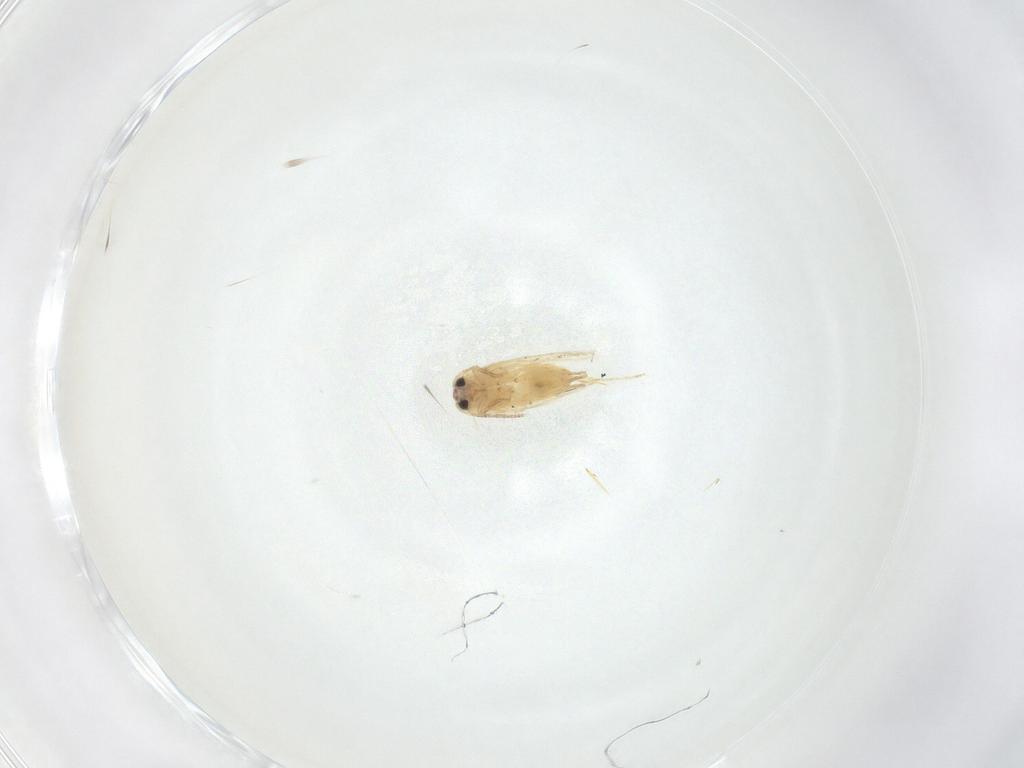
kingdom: Animalia
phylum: Arthropoda
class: Insecta
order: Lepidoptera
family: Crambidae
